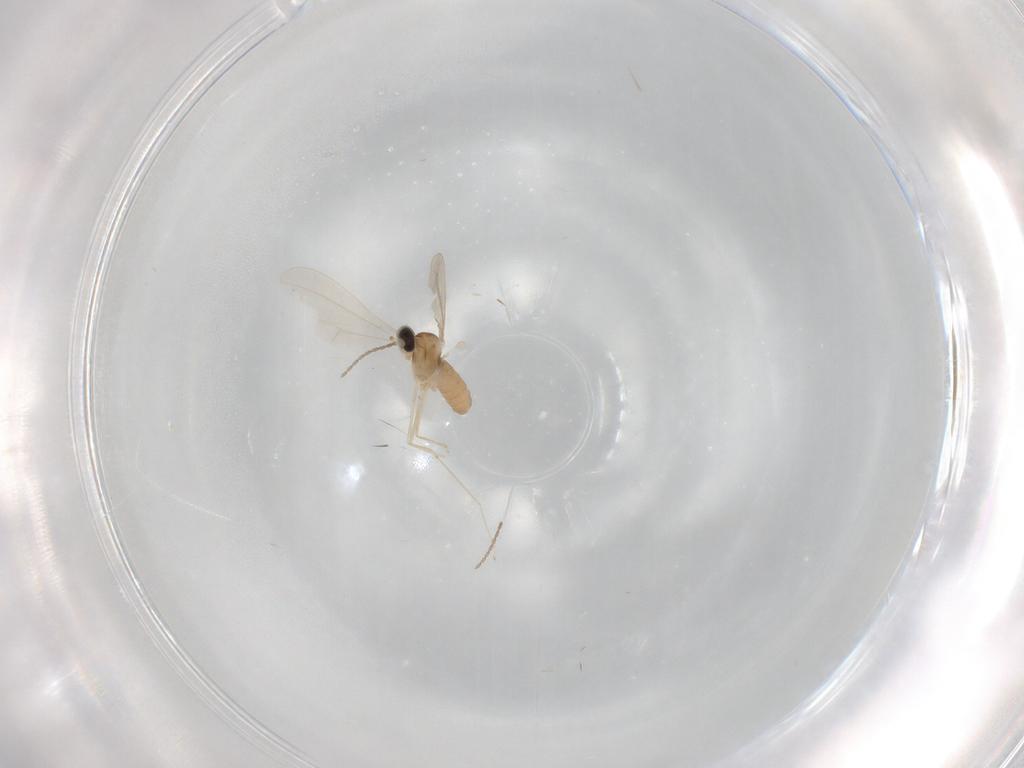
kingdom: Animalia
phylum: Arthropoda
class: Insecta
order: Diptera
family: Cecidomyiidae
